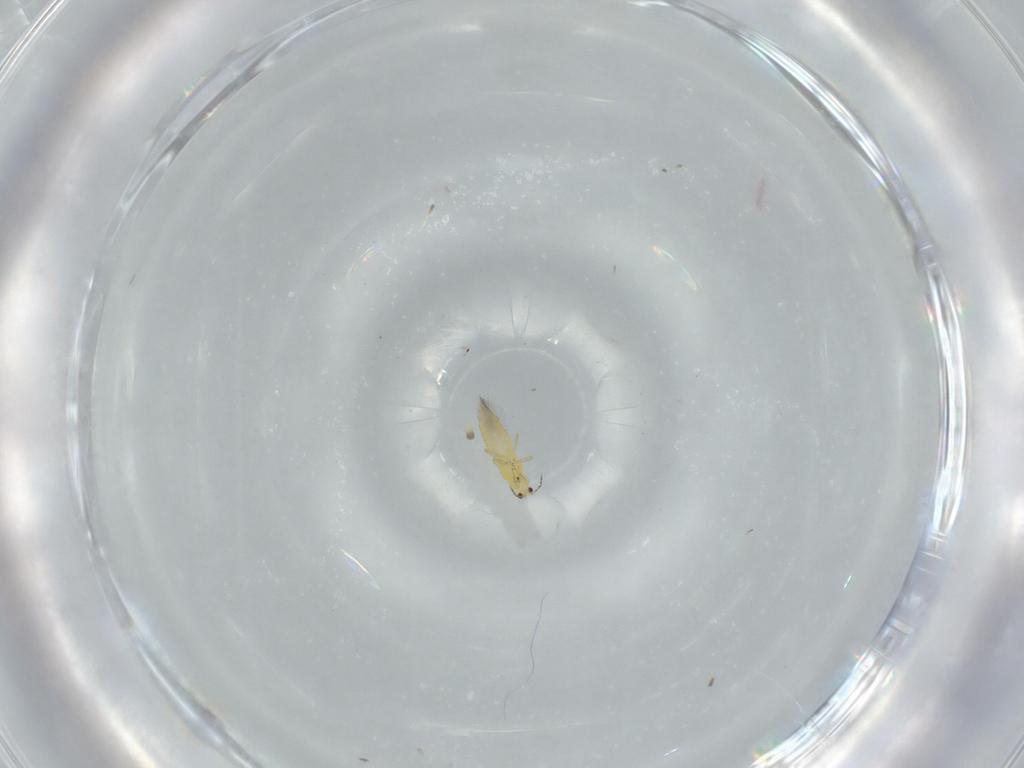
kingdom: Animalia
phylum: Arthropoda
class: Insecta
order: Thysanoptera
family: Thripidae
